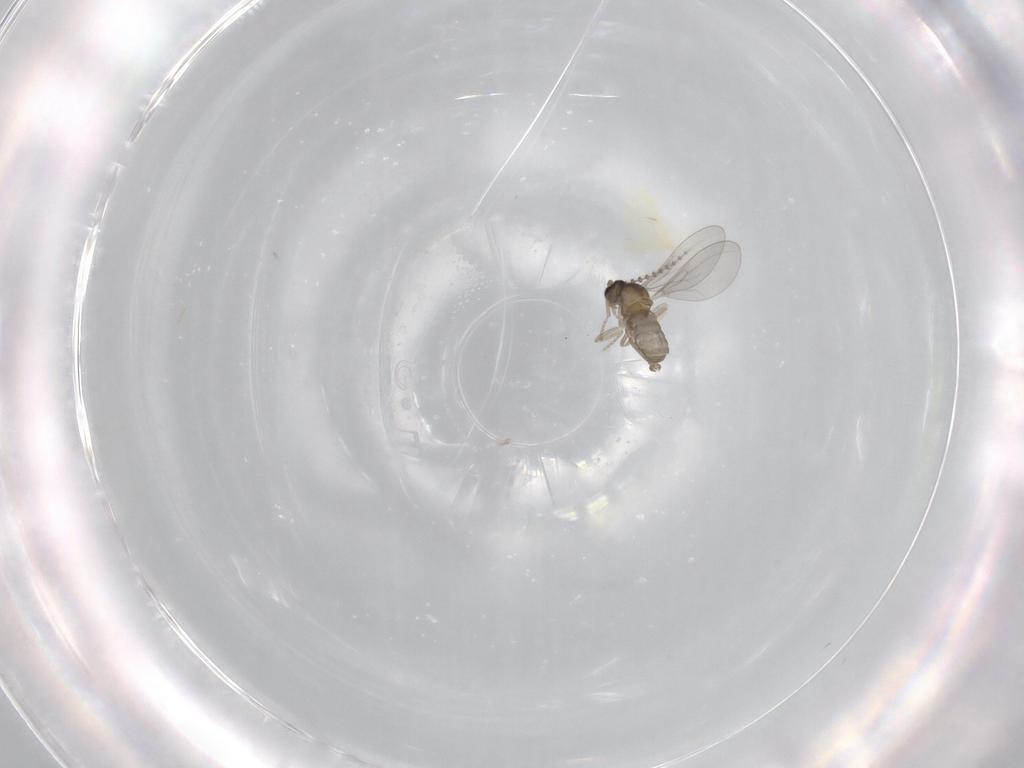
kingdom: Animalia
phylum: Arthropoda
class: Insecta
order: Diptera
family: Cecidomyiidae
